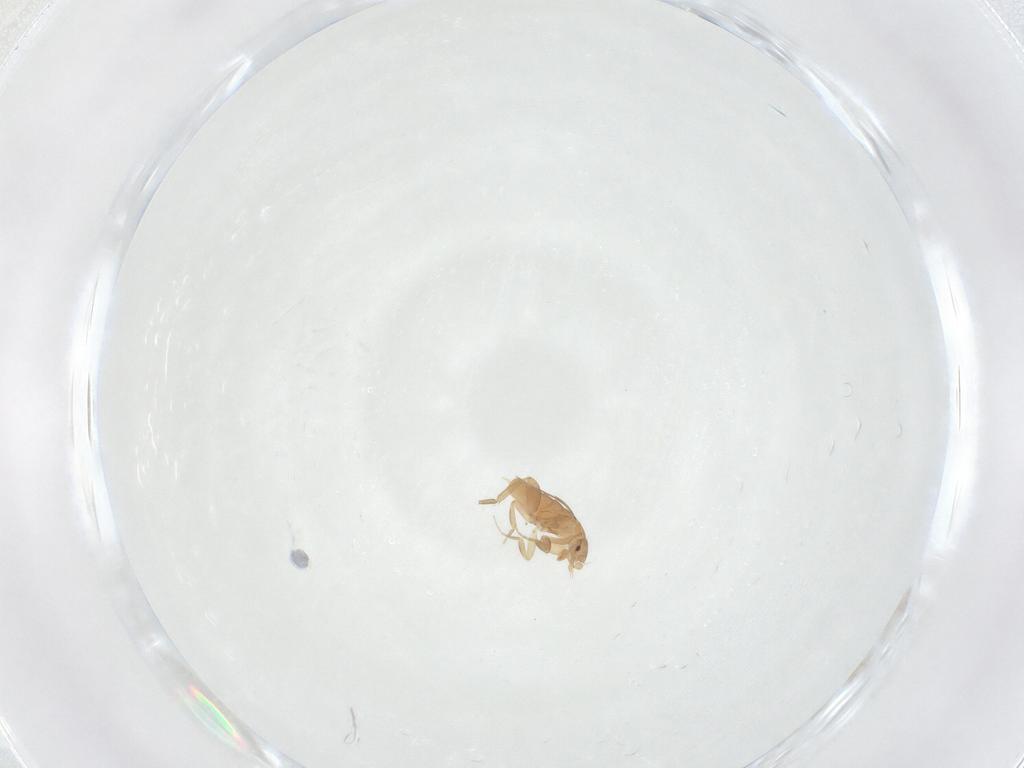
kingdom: Animalia
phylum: Arthropoda
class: Insecta
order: Diptera
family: Phoridae
